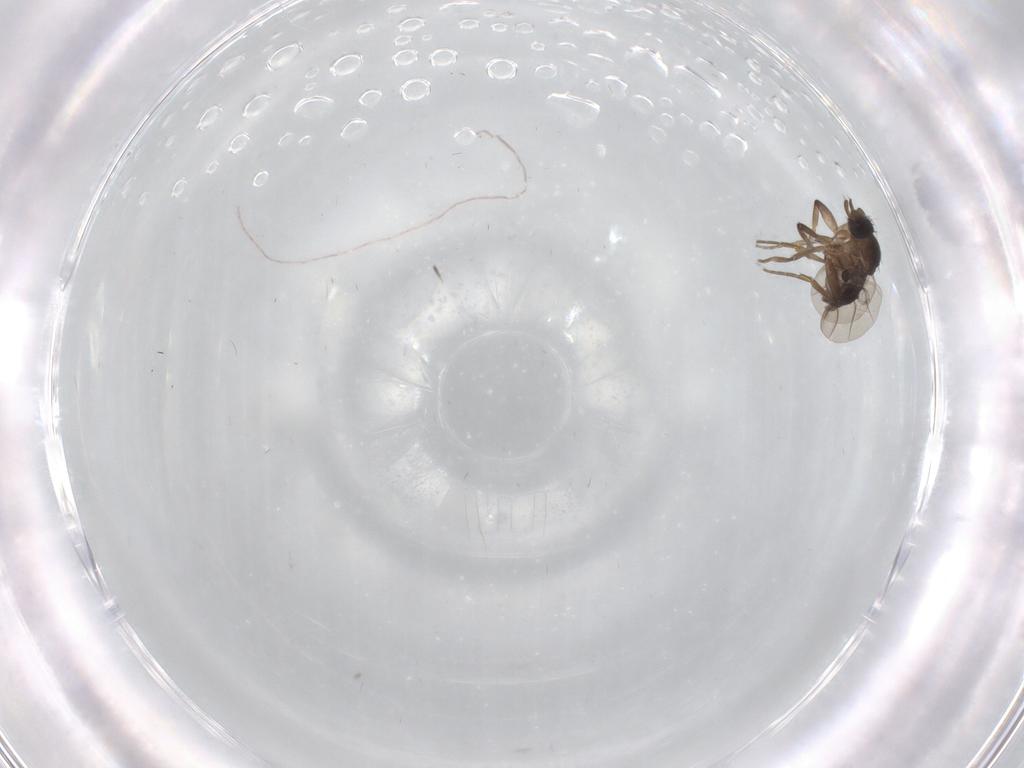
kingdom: Animalia
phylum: Arthropoda
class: Insecta
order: Diptera
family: Phoridae
